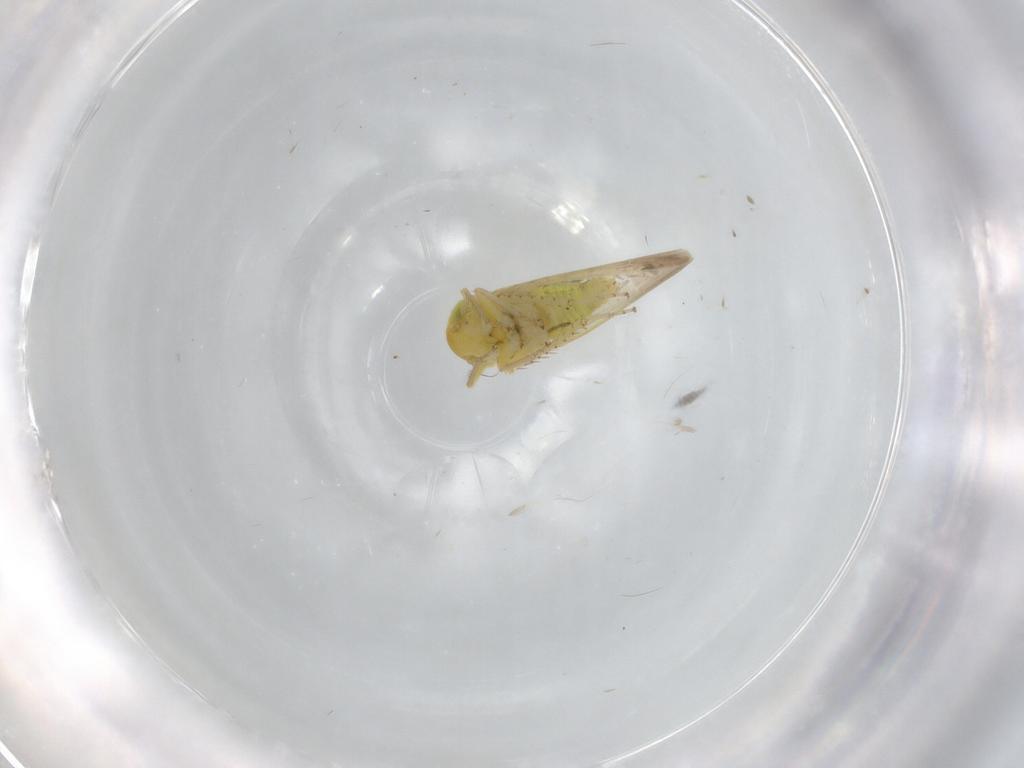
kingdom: Animalia
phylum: Arthropoda
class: Insecta
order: Hemiptera
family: Cicadellidae
